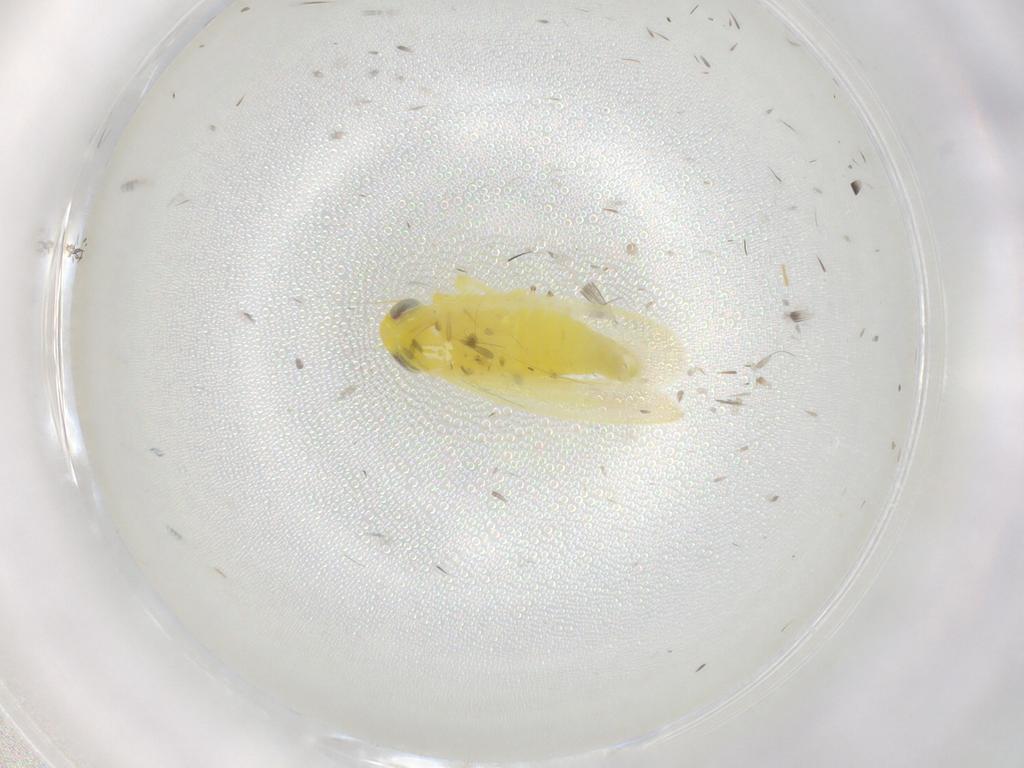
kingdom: Animalia
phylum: Arthropoda
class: Insecta
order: Hemiptera
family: Cicadellidae
